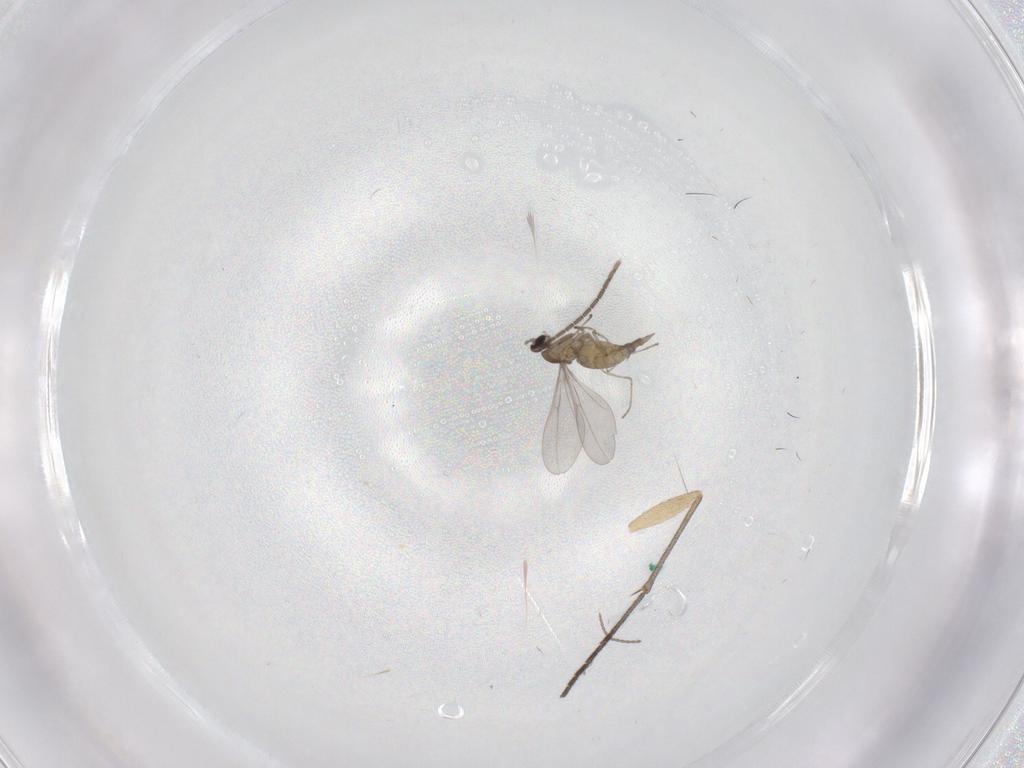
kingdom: Animalia
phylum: Arthropoda
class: Insecta
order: Diptera
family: Cecidomyiidae
